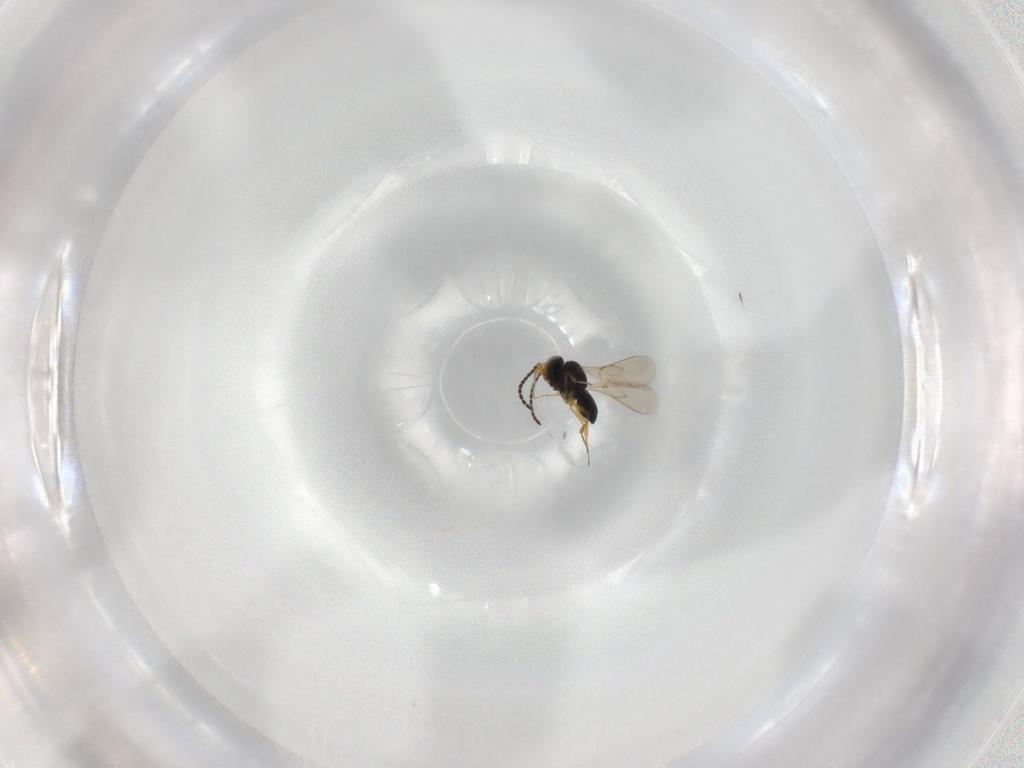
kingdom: Animalia
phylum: Arthropoda
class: Insecta
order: Hymenoptera
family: Scelionidae
